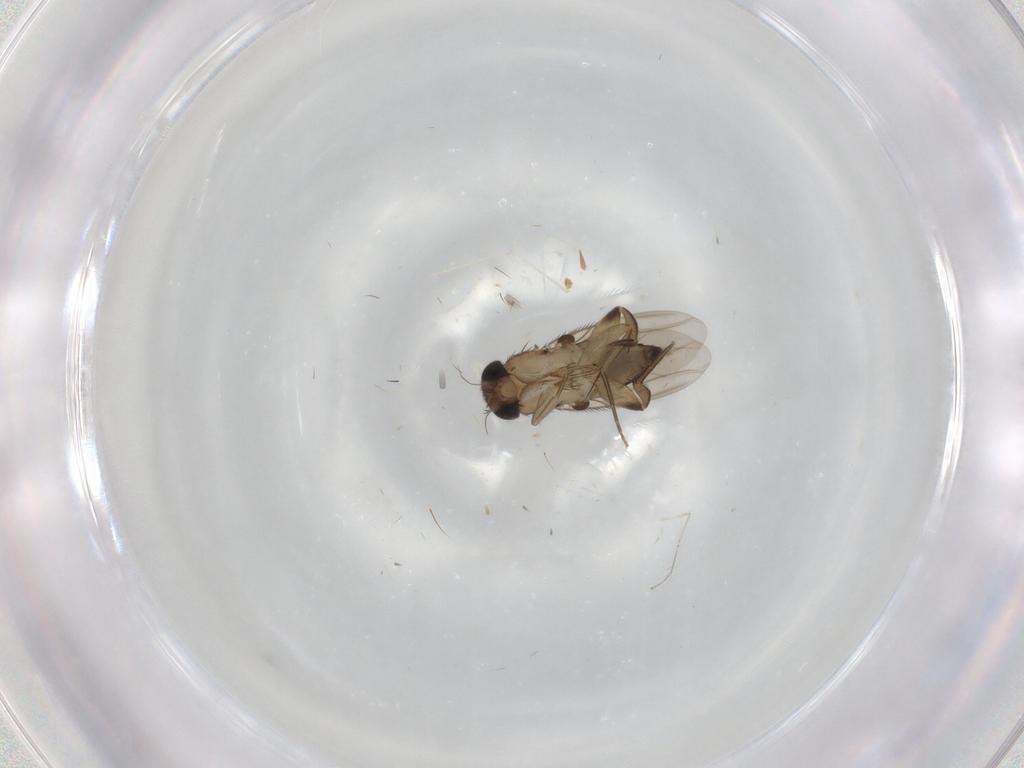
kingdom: Animalia
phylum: Arthropoda
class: Insecta
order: Diptera
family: Phoridae
